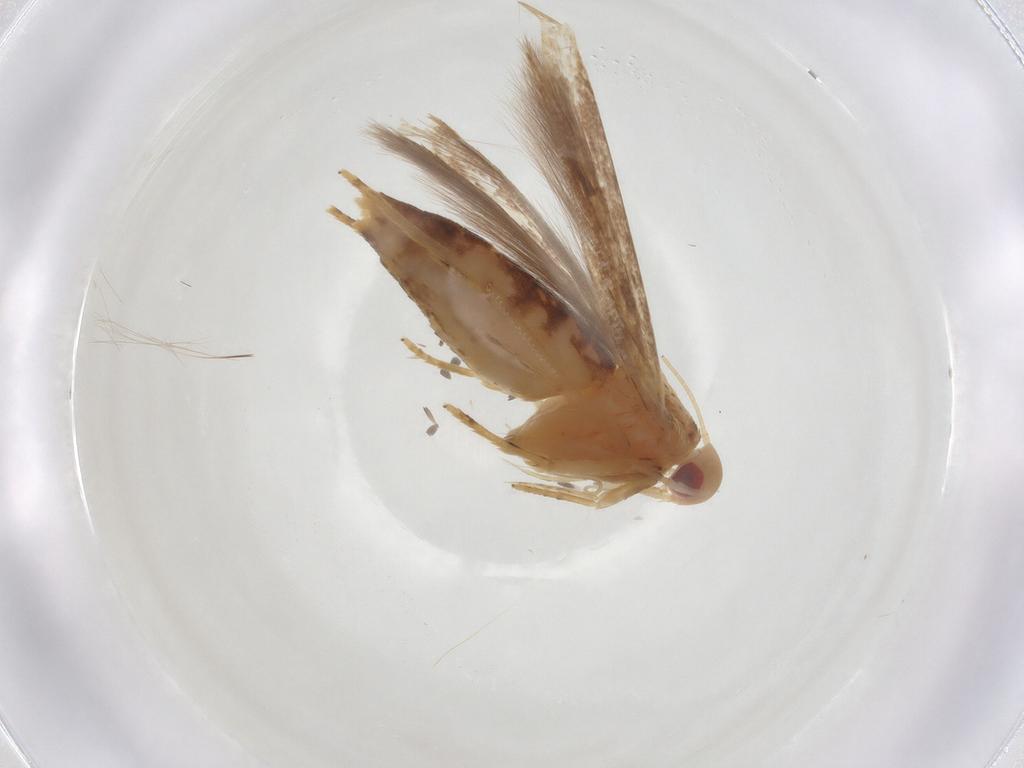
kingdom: Animalia
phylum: Arthropoda
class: Insecta
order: Lepidoptera
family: Cosmopterigidae
